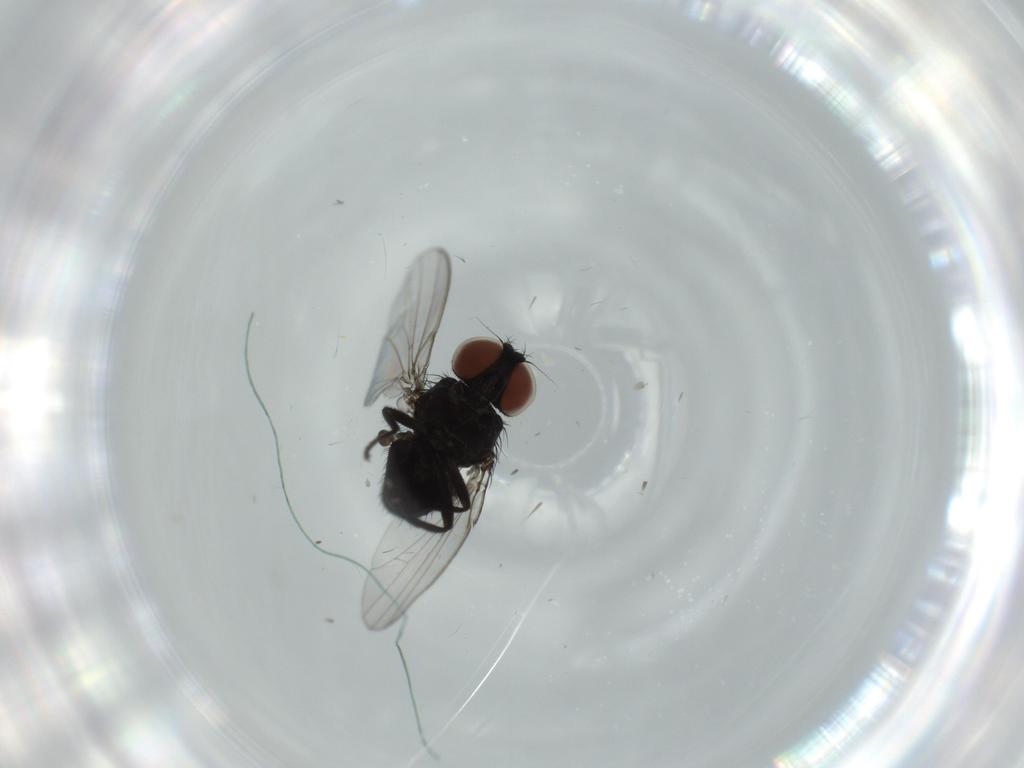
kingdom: Animalia
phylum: Arthropoda
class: Insecta
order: Diptera
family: Milichiidae
